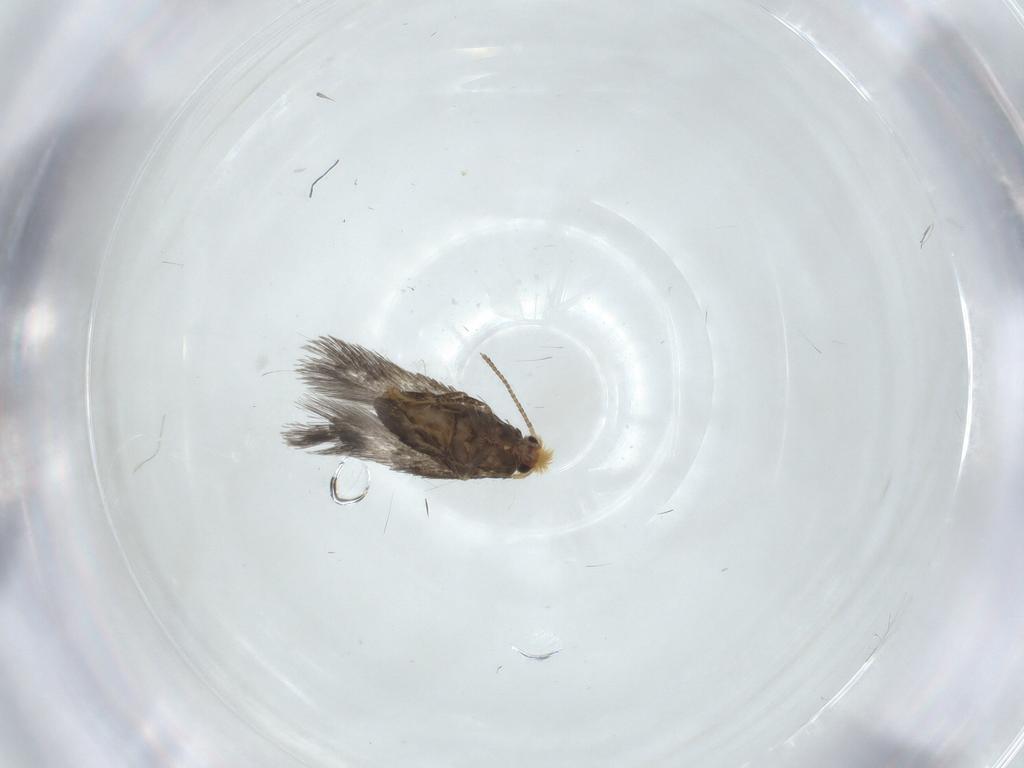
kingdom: Animalia
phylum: Arthropoda
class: Insecta
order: Lepidoptera
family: Nepticulidae
